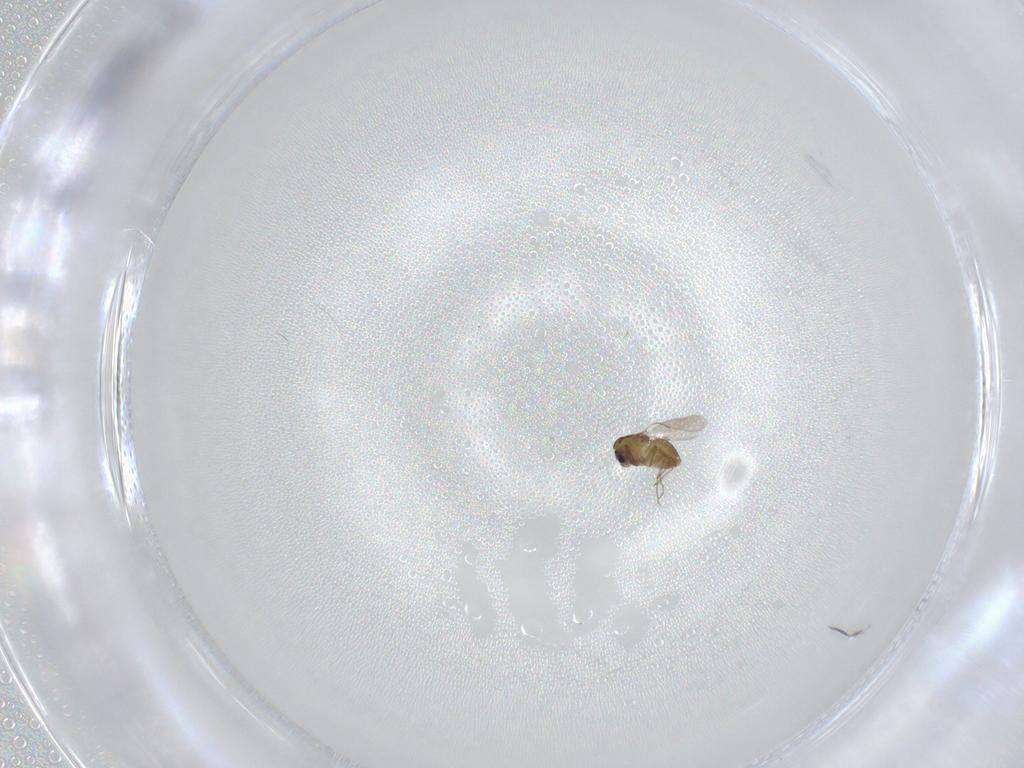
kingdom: Animalia
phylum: Arthropoda
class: Insecta
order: Diptera
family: Chironomidae
